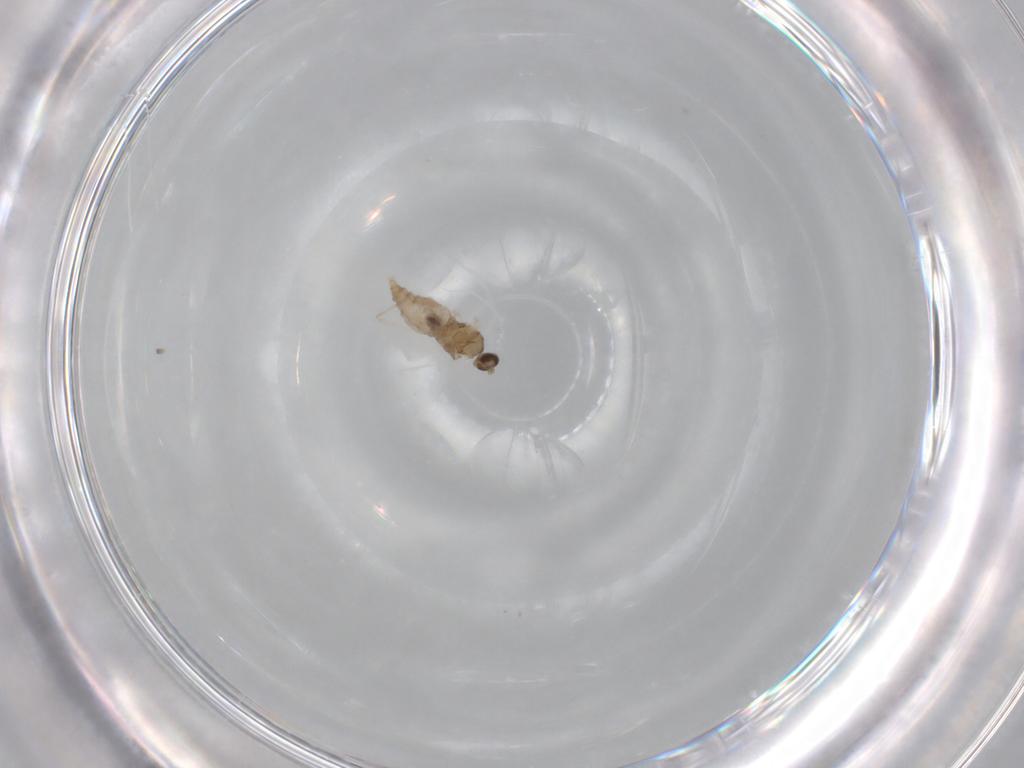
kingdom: Animalia
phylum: Arthropoda
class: Insecta
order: Diptera
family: Cecidomyiidae
